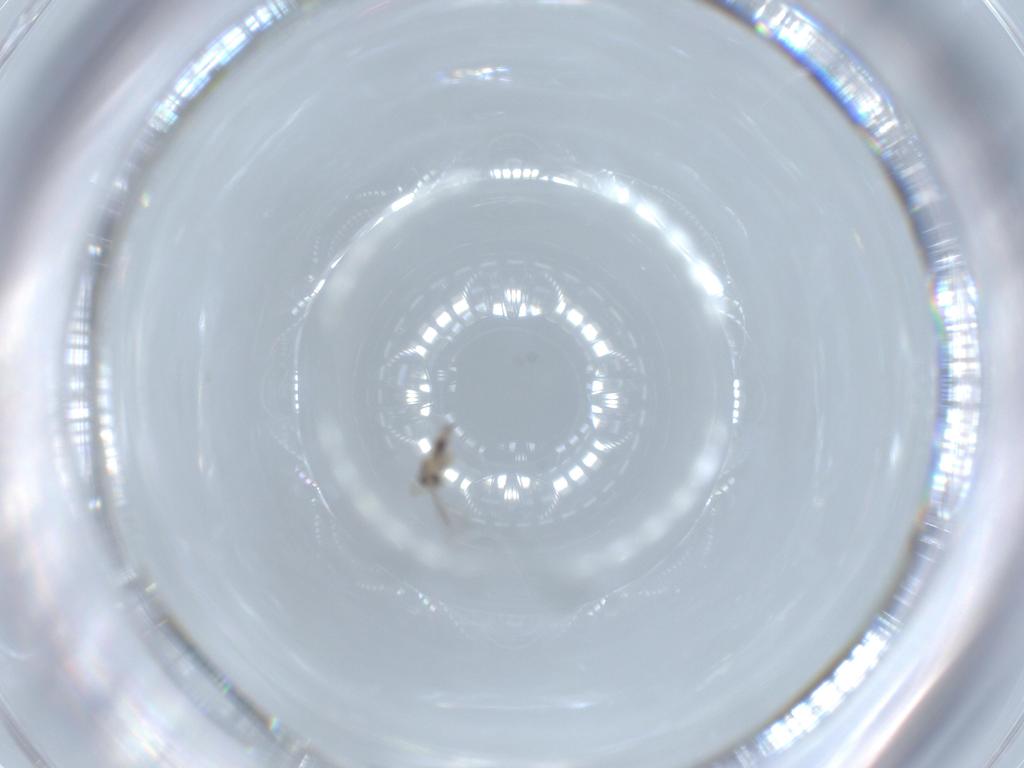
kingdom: Animalia
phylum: Arthropoda
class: Insecta
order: Diptera
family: Cecidomyiidae
